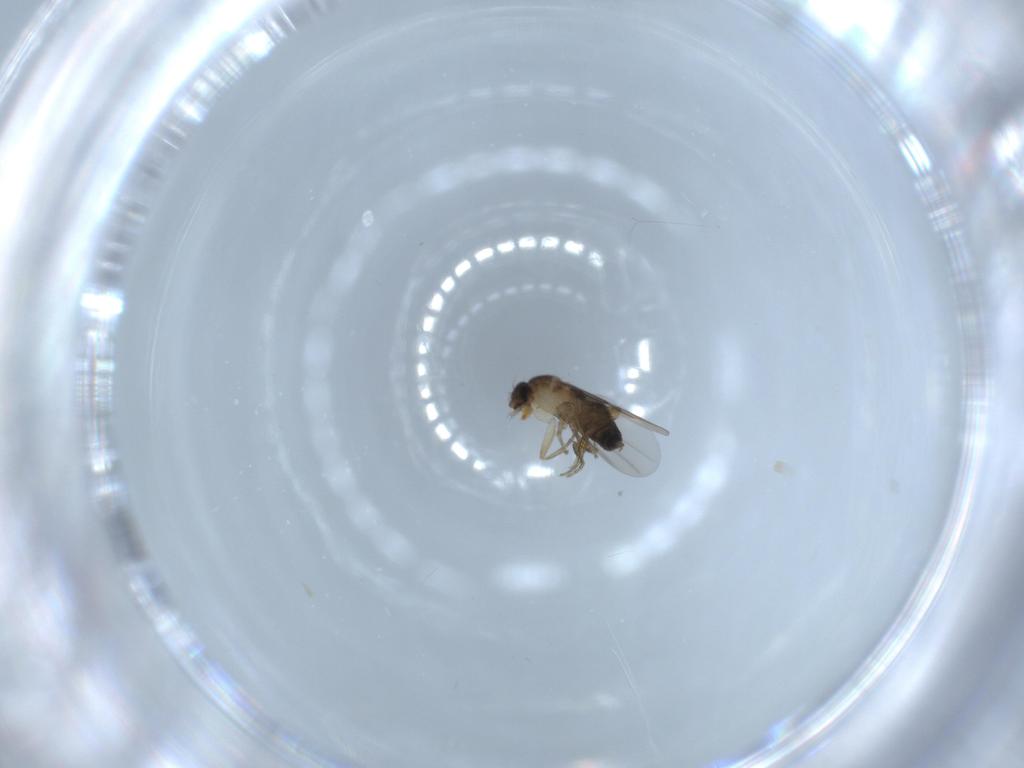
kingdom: Animalia
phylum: Arthropoda
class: Insecta
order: Diptera
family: Phoridae
